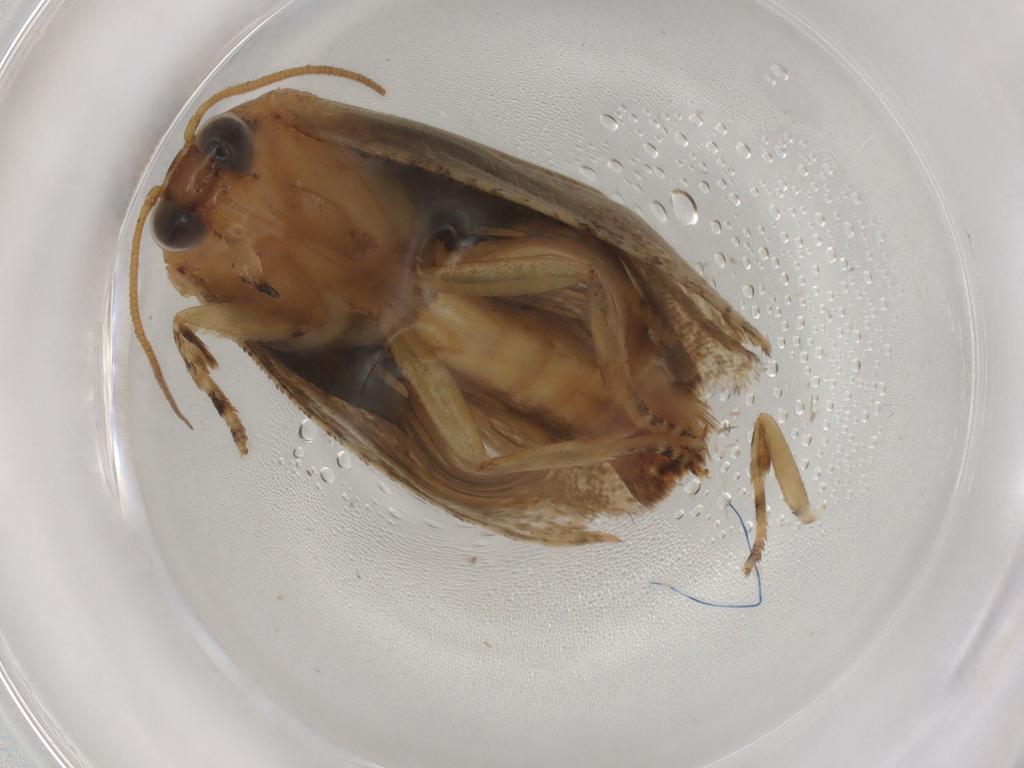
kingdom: Animalia
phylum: Arthropoda
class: Insecta
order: Lepidoptera
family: Tortricidae
